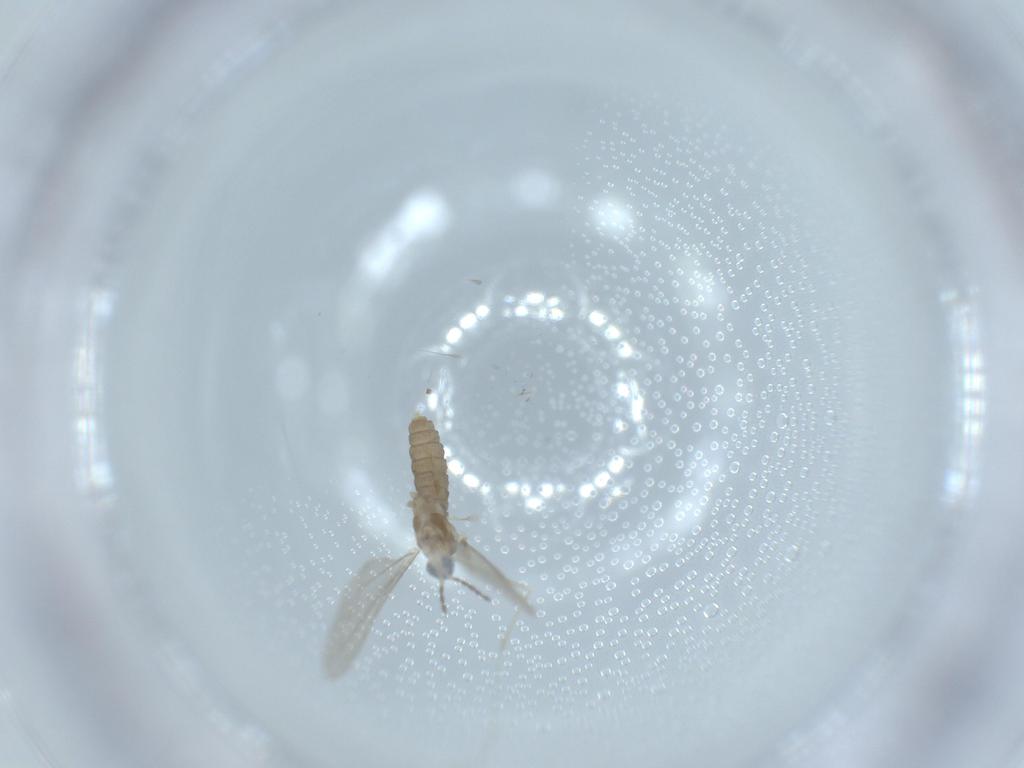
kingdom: Animalia
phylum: Arthropoda
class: Insecta
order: Diptera
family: Cecidomyiidae
